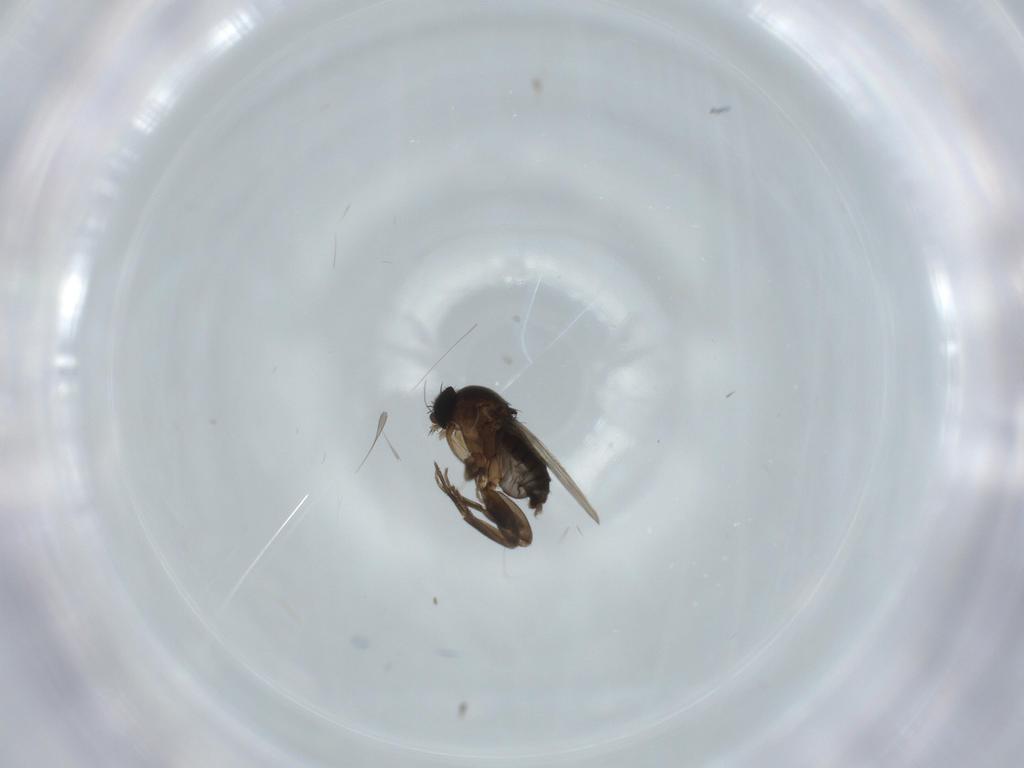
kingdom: Animalia
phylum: Arthropoda
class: Insecta
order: Diptera
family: Phoridae
